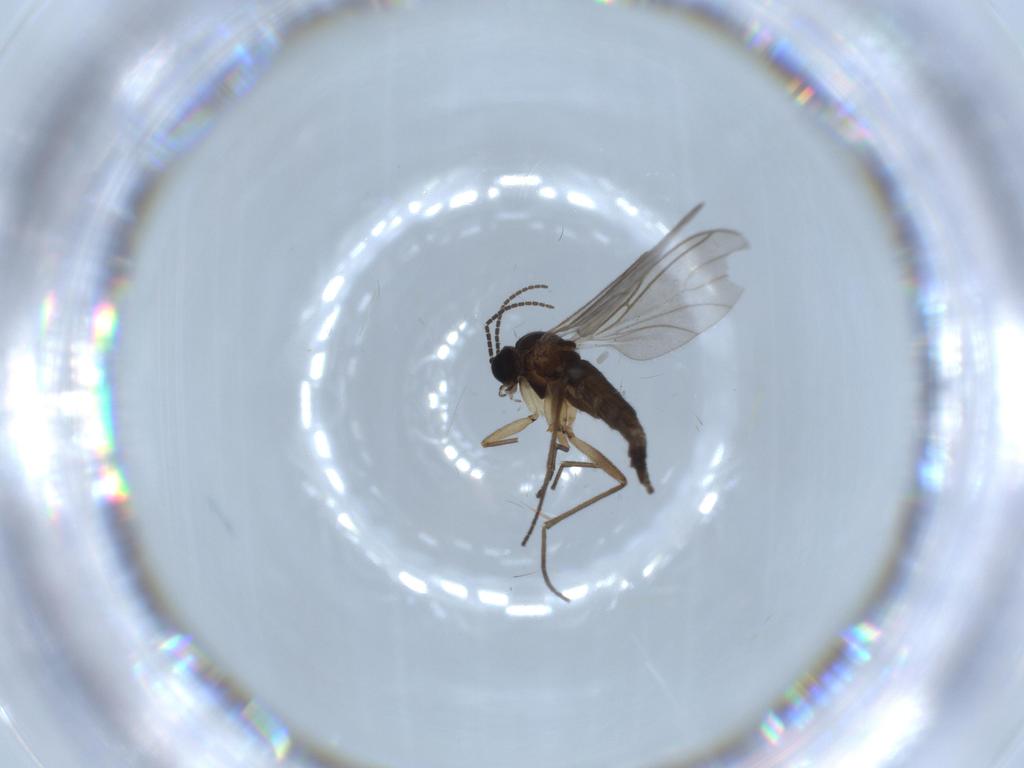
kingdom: Animalia
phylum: Arthropoda
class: Insecta
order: Diptera
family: Sciaridae
